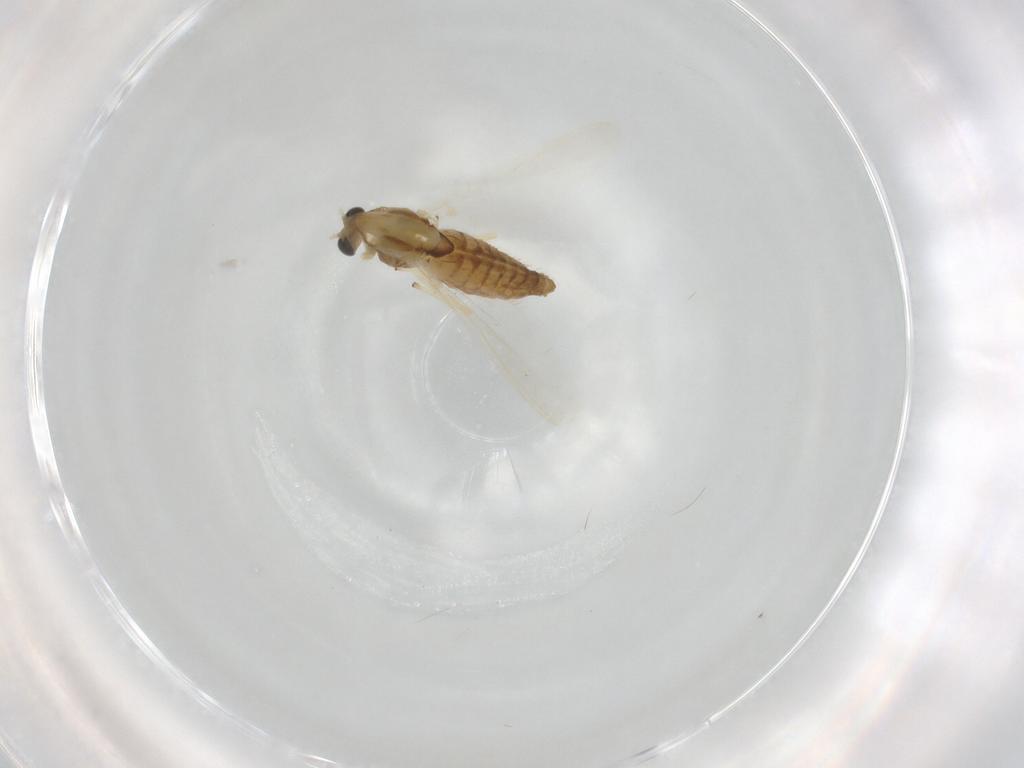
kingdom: Animalia
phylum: Arthropoda
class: Insecta
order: Diptera
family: Chironomidae
